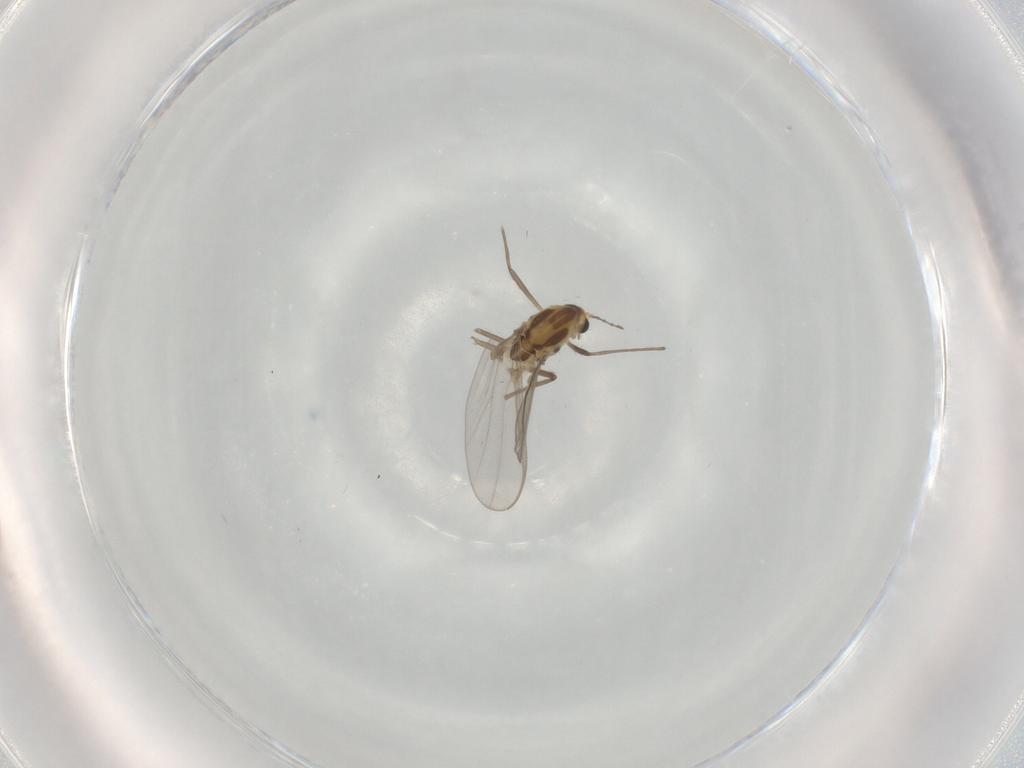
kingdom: Animalia
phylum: Arthropoda
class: Insecta
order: Diptera
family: Chironomidae
